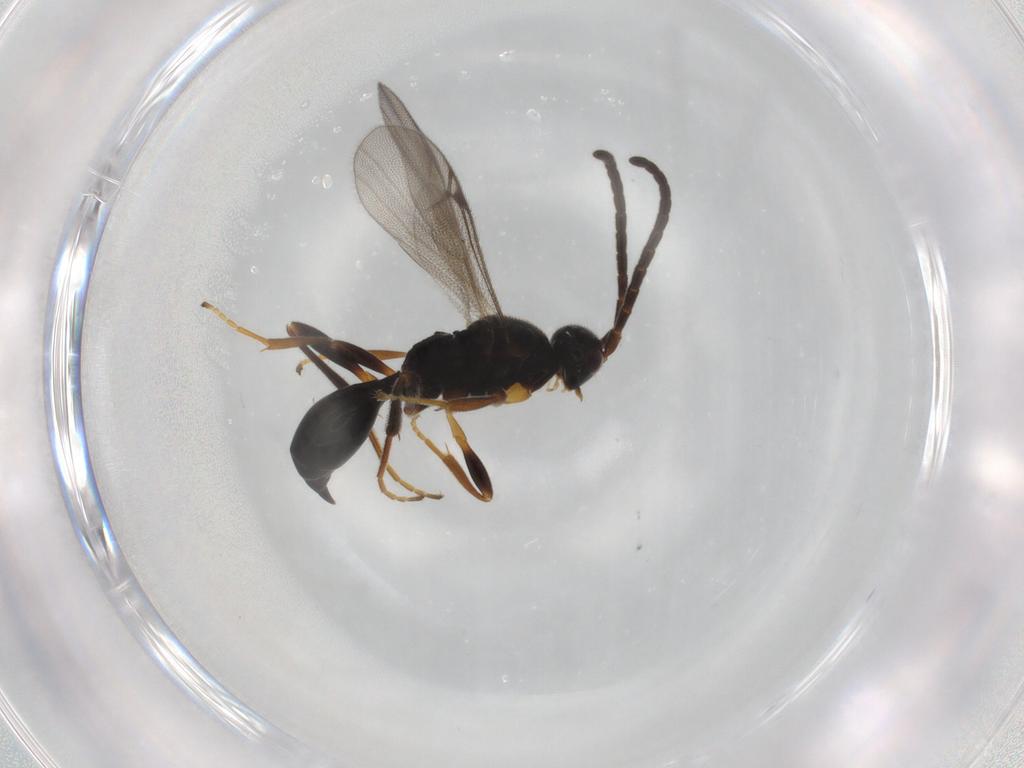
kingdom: Animalia
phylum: Arthropoda
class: Insecta
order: Hymenoptera
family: Proctotrupidae
